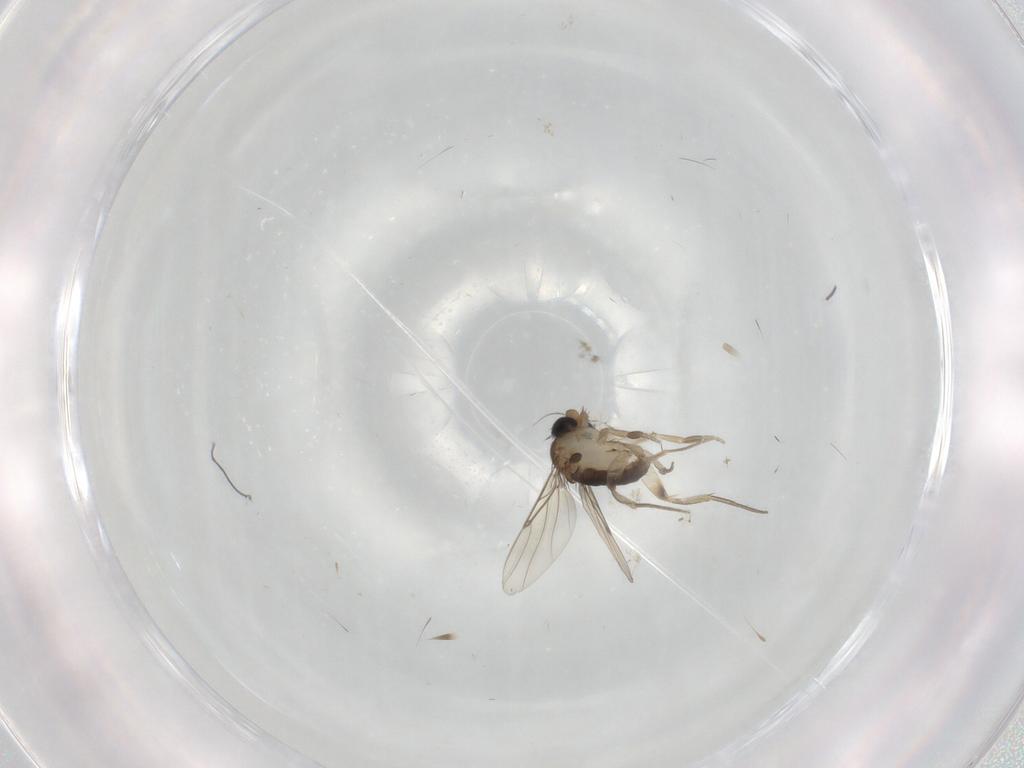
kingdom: Animalia
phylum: Arthropoda
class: Insecta
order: Diptera
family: Phoridae
